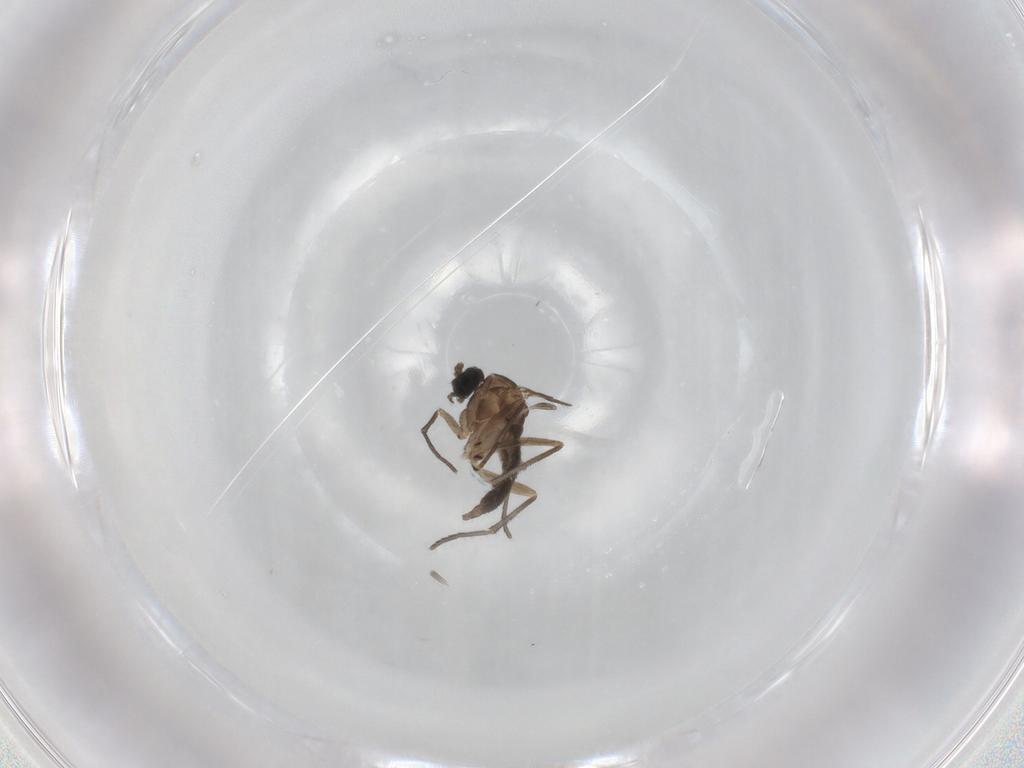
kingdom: Animalia
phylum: Arthropoda
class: Insecta
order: Diptera
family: Sciaridae
